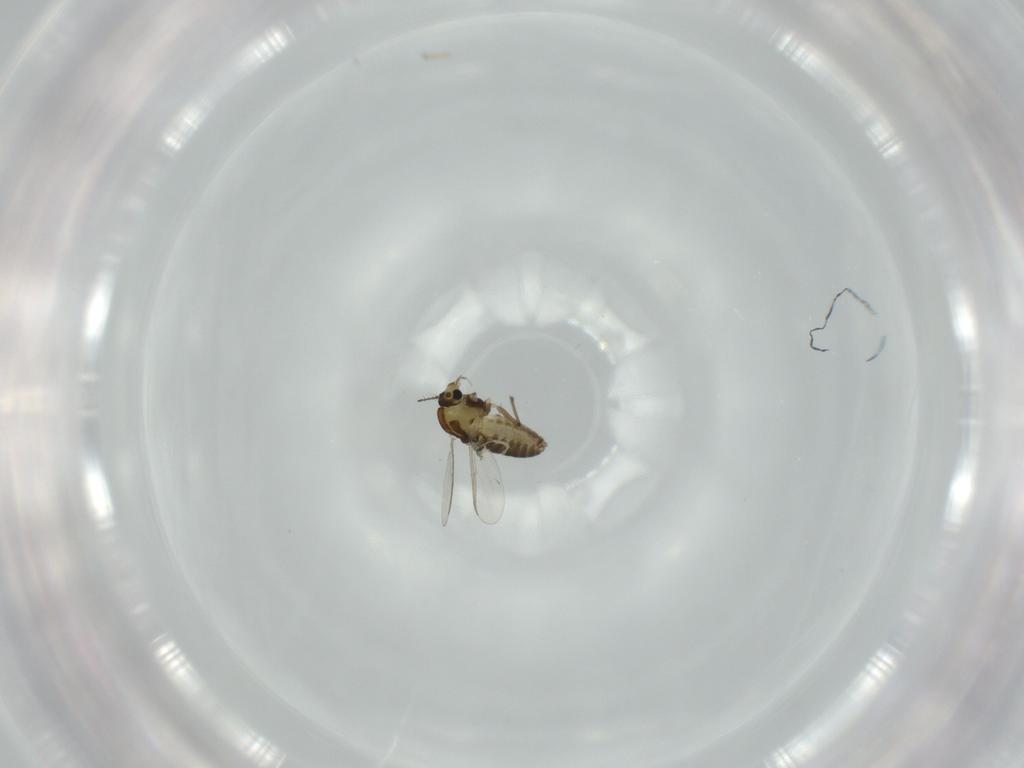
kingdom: Animalia
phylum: Arthropoda
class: Insecta
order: Diptera
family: Chironomidae
